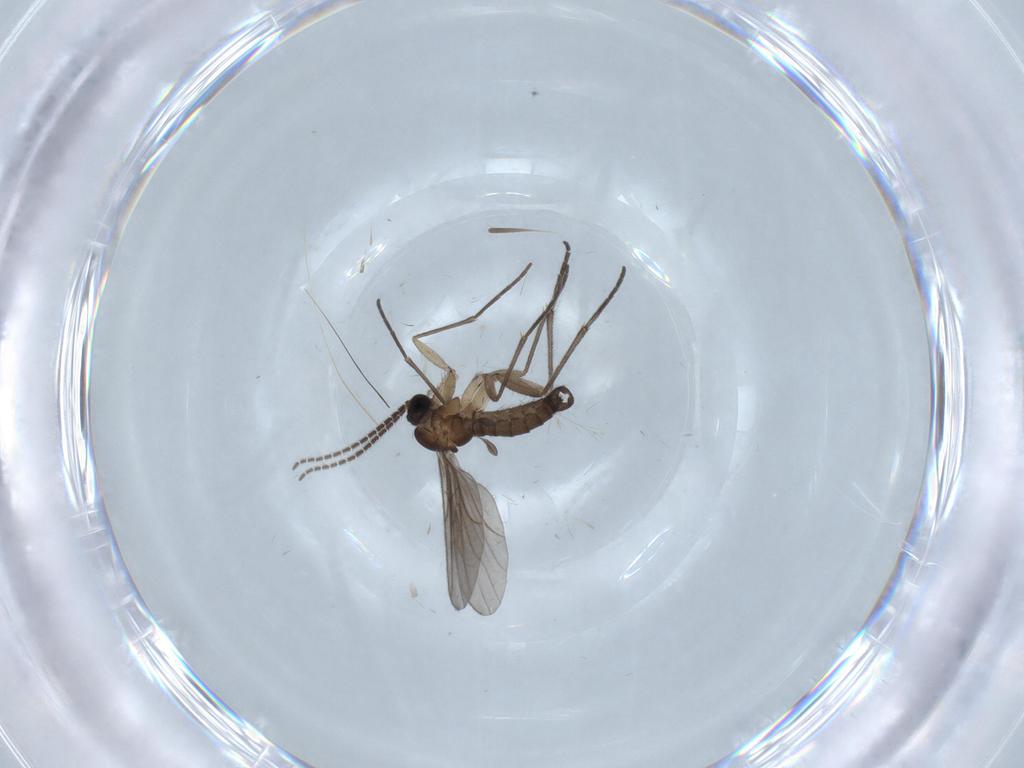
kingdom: Animalia
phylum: Arthropoda
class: Insecta
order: Diptera
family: Sciaridae
